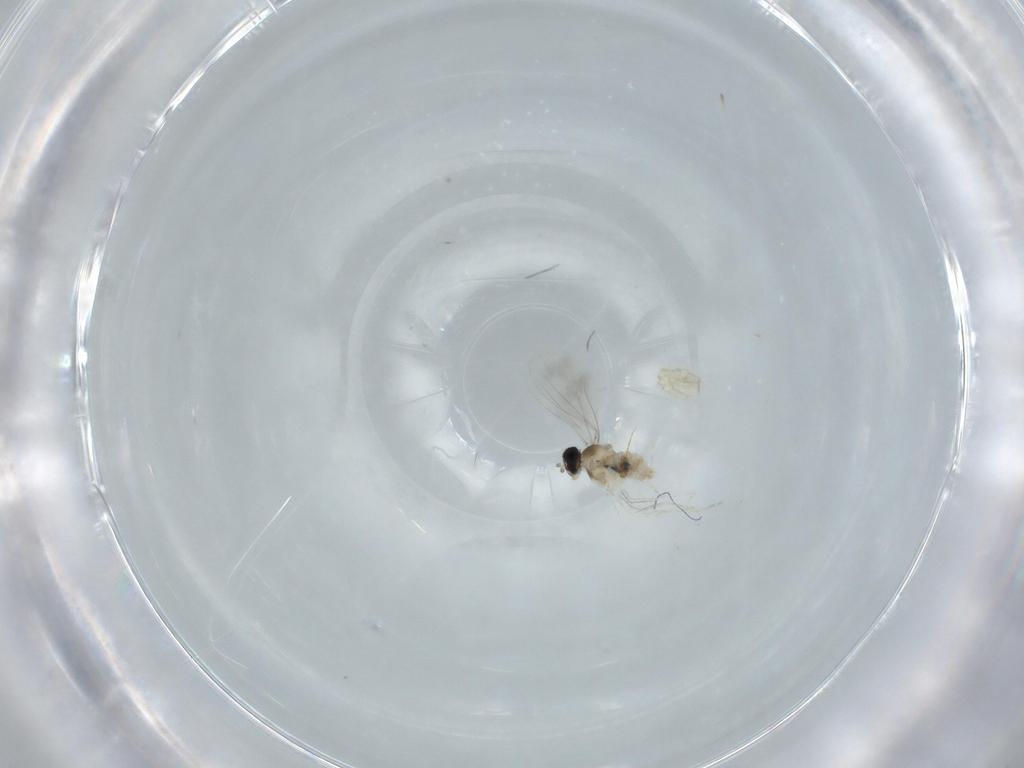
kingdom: Animalia
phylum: Arthropoda
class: Insecta
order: Diptera
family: Cecidomyiidae
